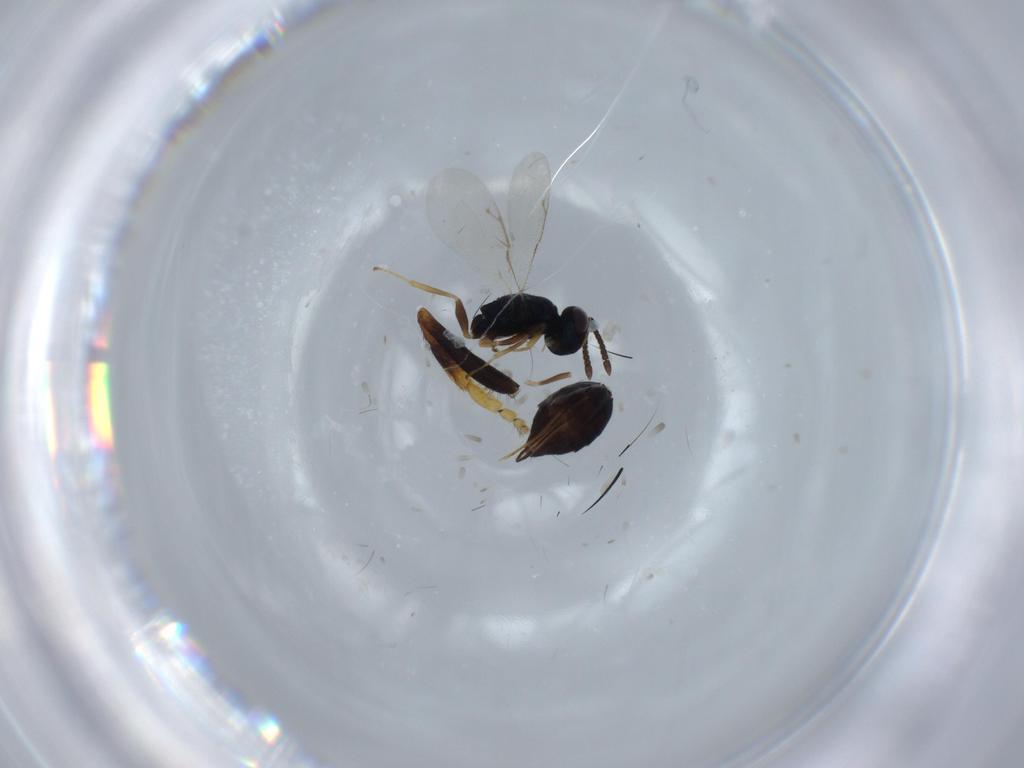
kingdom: Animalia
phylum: Arthropoda
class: Insecta
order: Hymenoptera
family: Pteromalidae
